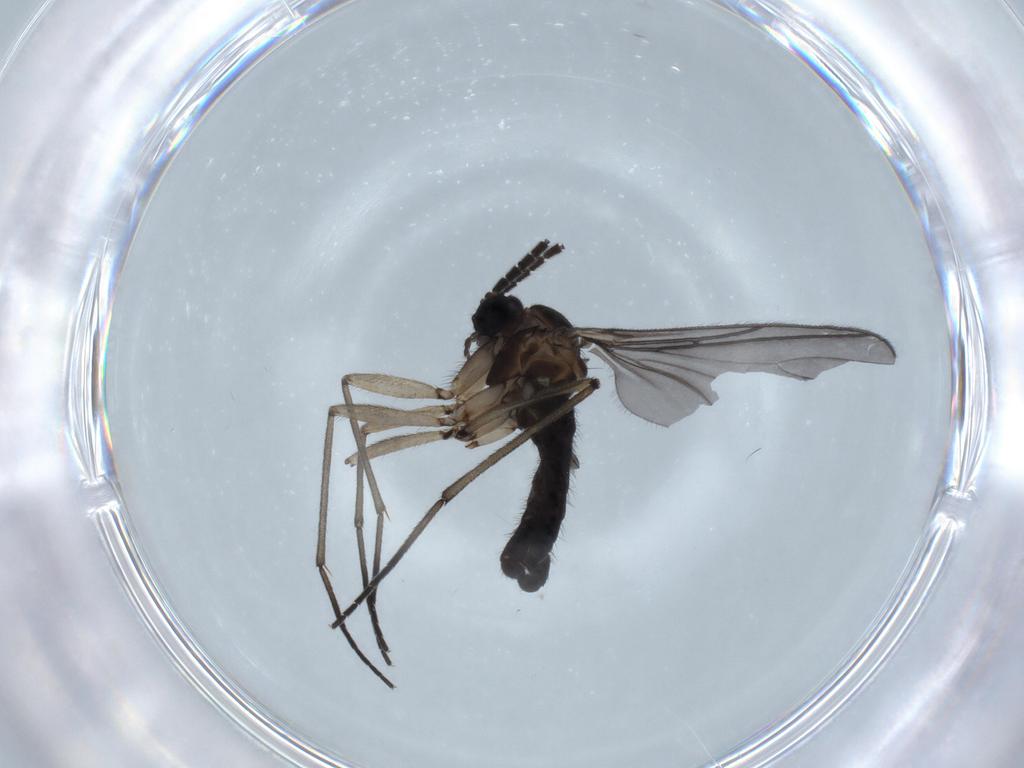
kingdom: Animalia
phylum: Arthropoda
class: Insecta
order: Diptera
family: Sciaridae
